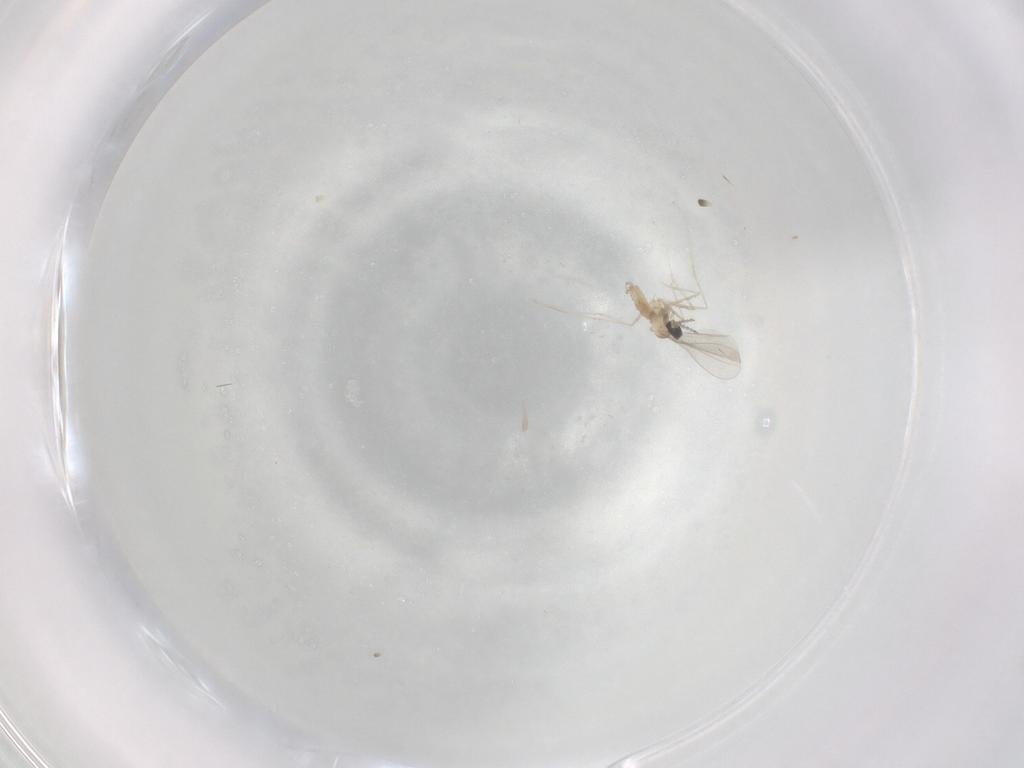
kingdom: Animalia
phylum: Arthropoda
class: Insecta
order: Diptera
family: Cecidomyiidae
